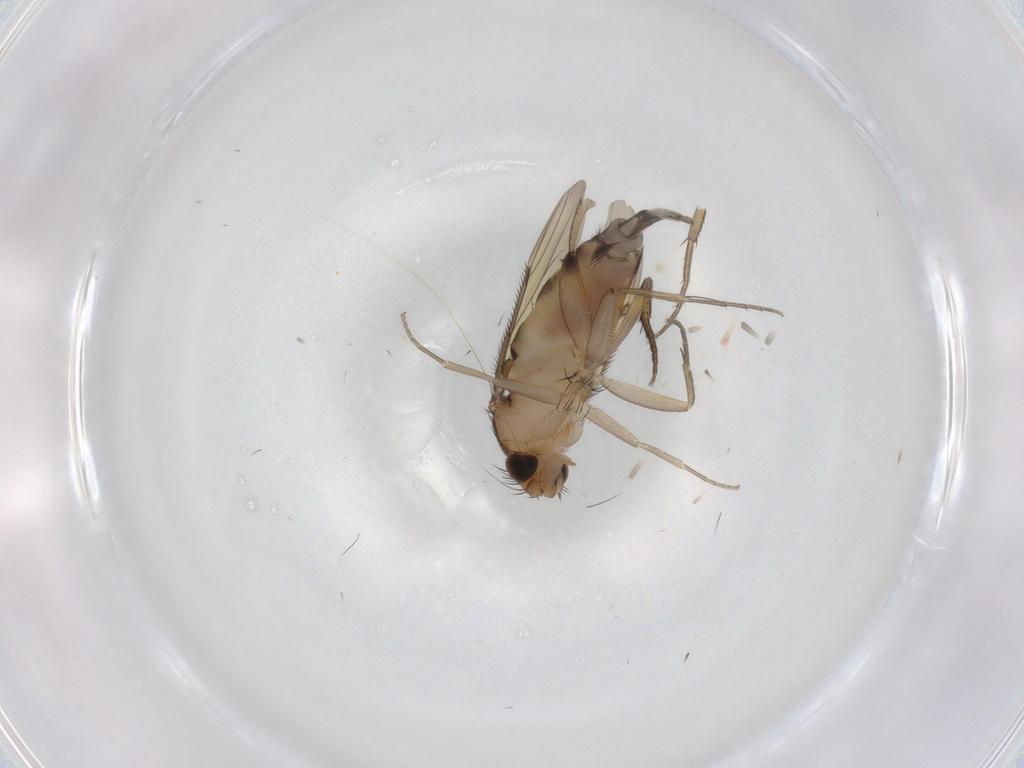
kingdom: Animalia
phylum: Arthropoda
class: Insecta
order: Diptera
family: Phoridae
